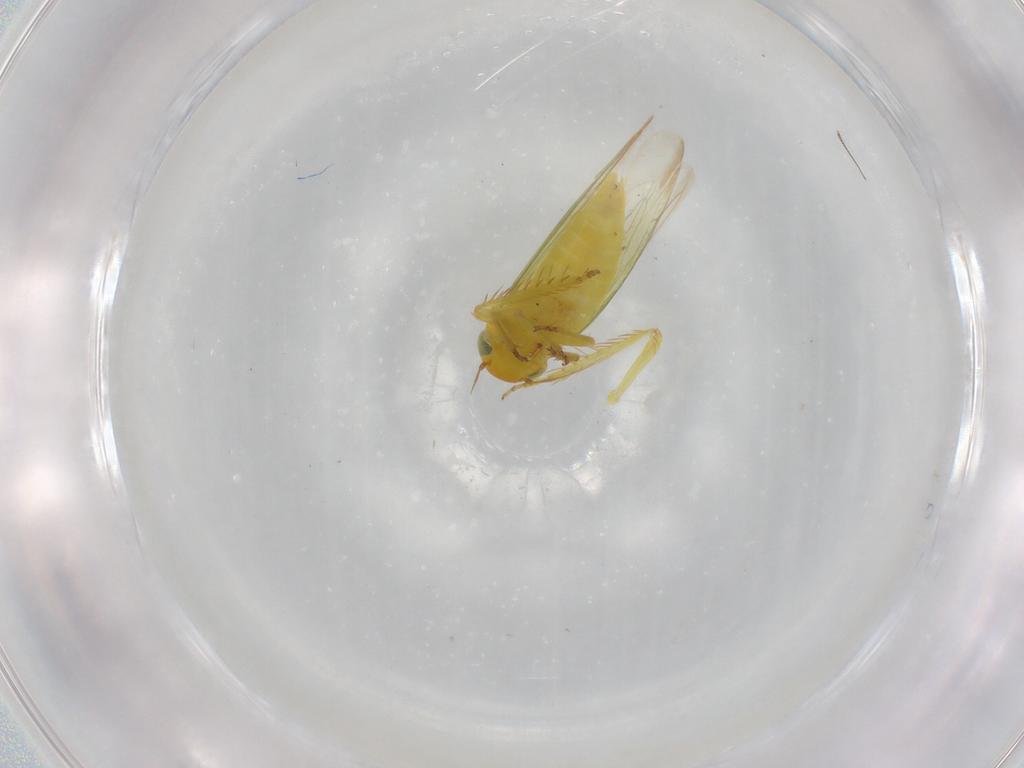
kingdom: Animalia
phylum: Arthropoda
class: Insecta
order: Hemiptera
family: Cicadellidae
